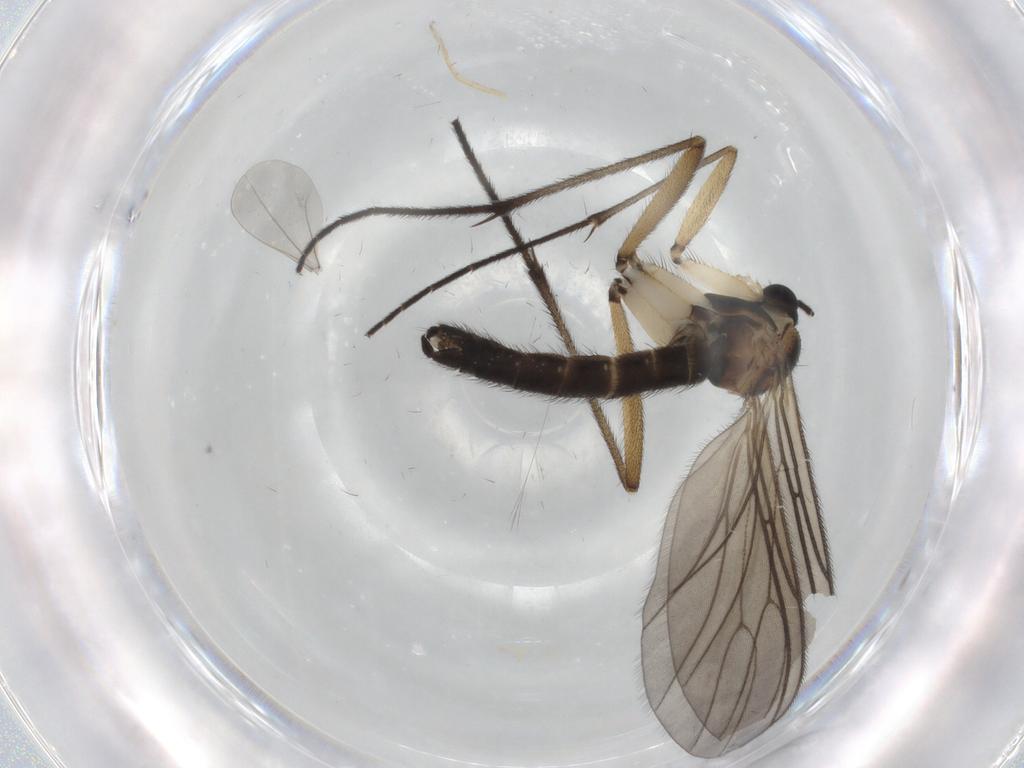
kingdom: Animalia
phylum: Arthropoda
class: Insecta
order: Diptera
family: Sciaridae
